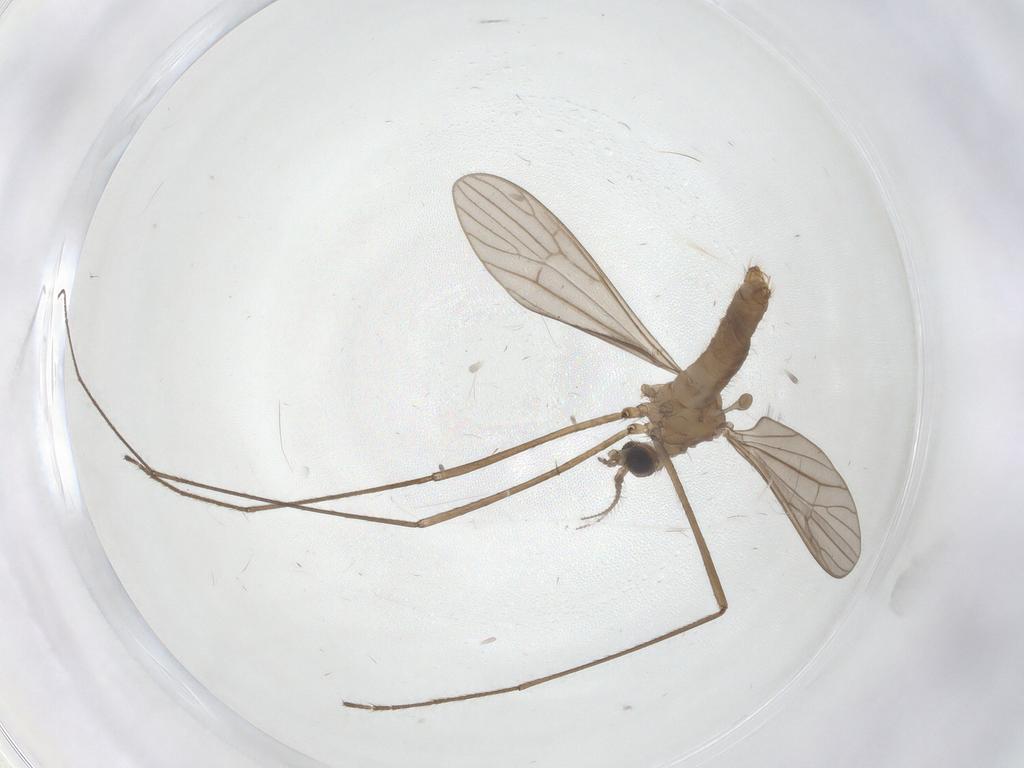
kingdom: Animalia
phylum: Arthropoda
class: Insecta
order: Diptera
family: Limoniidae
